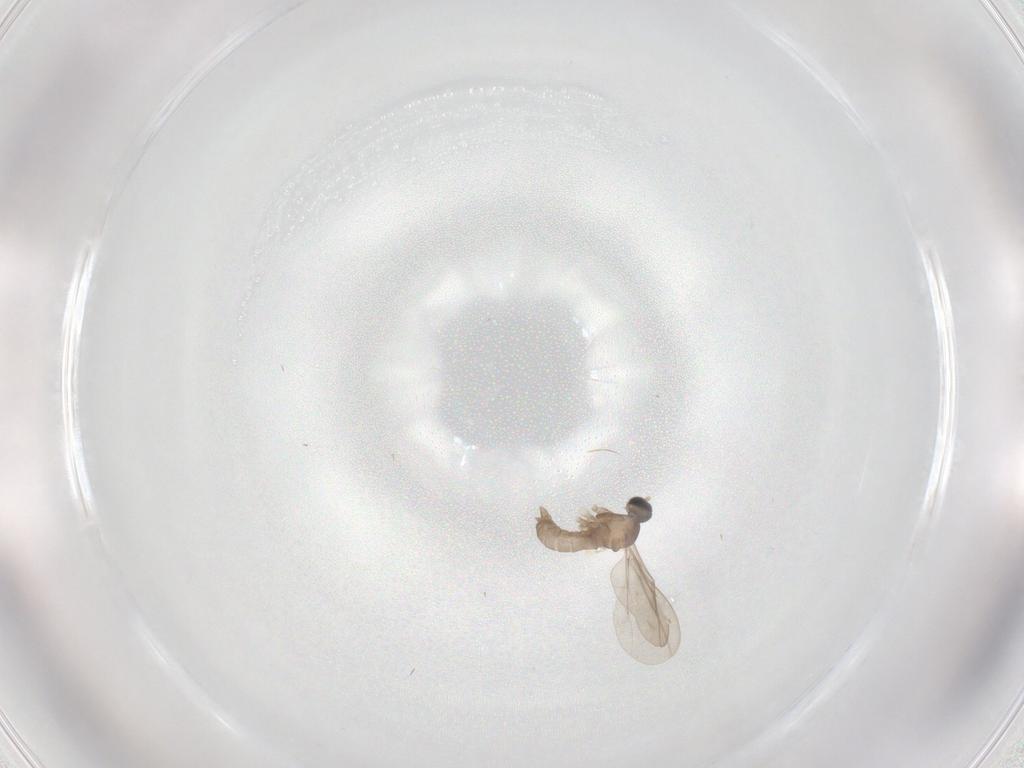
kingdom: Animalia
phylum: Arthropoda
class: Insecta
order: Diptera
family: Cecidomyiidae
